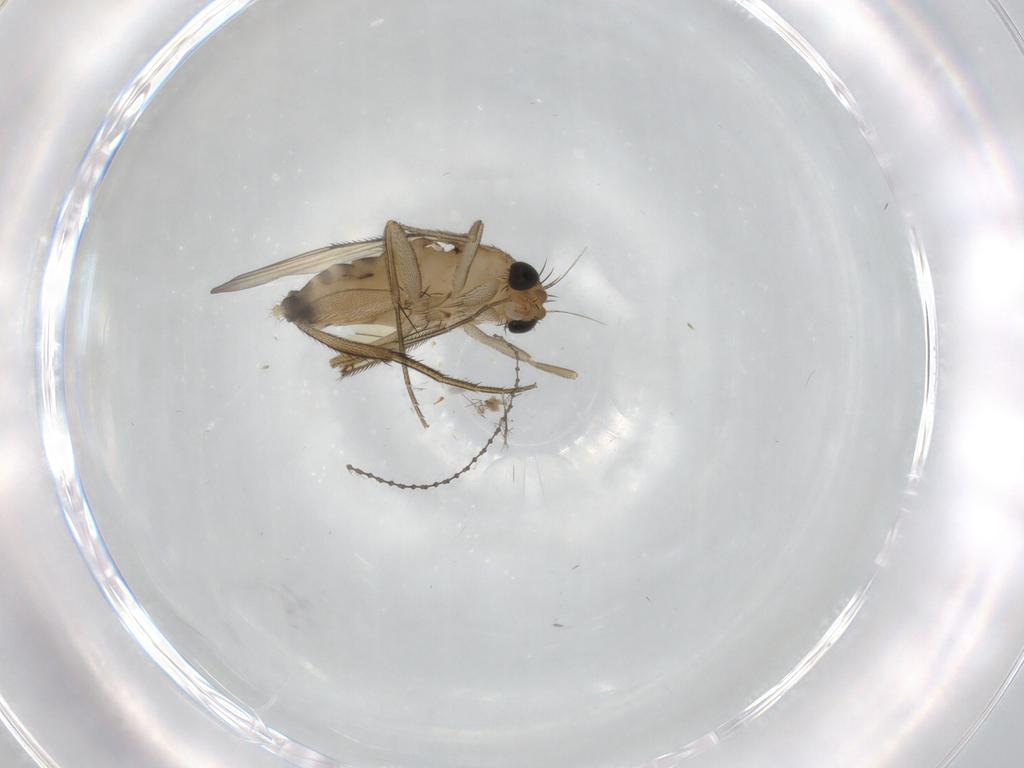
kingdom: Animalia
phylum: Arthropoda
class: Insecta
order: Diptera
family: Phoridae
